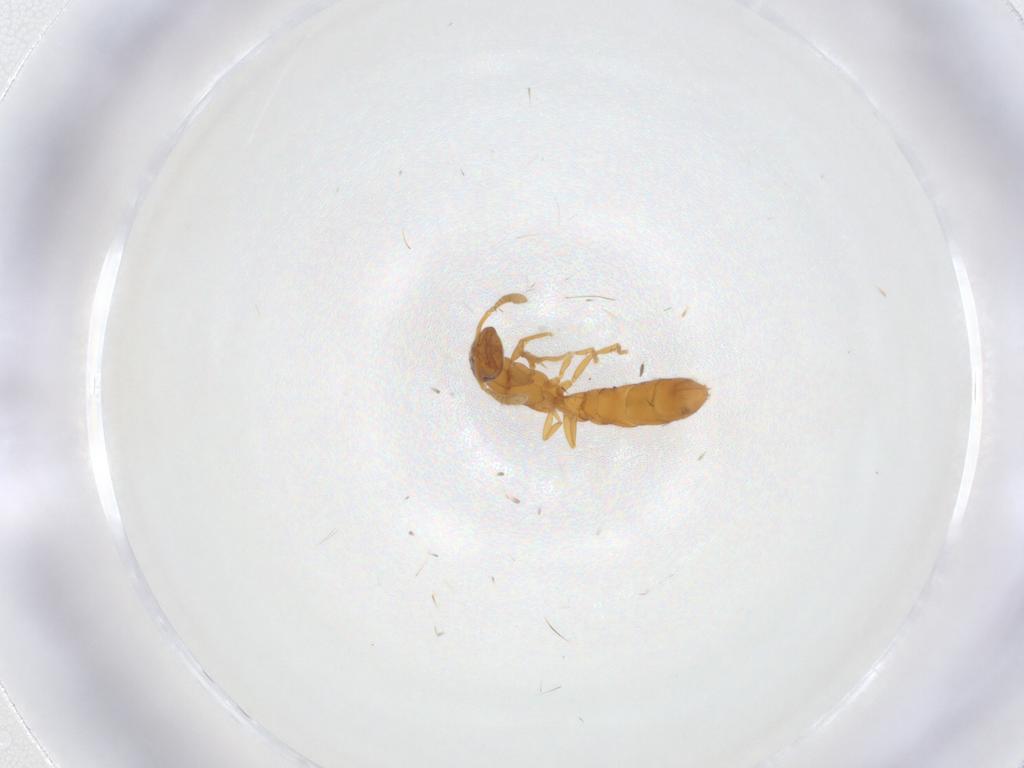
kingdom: Animalia
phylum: Arthropoda
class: Insecta
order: Hymenoptera
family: Formicidae
